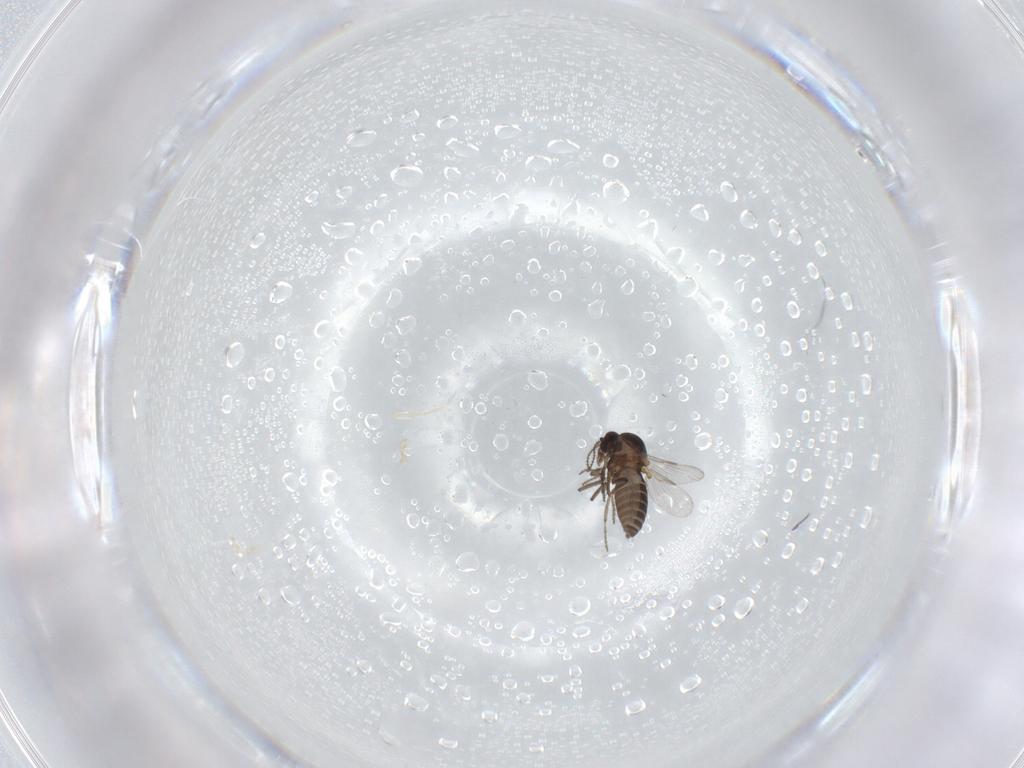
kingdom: Animalia
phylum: Arthropoda
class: Insecta
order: Diptera
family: Ceratopogonidae
